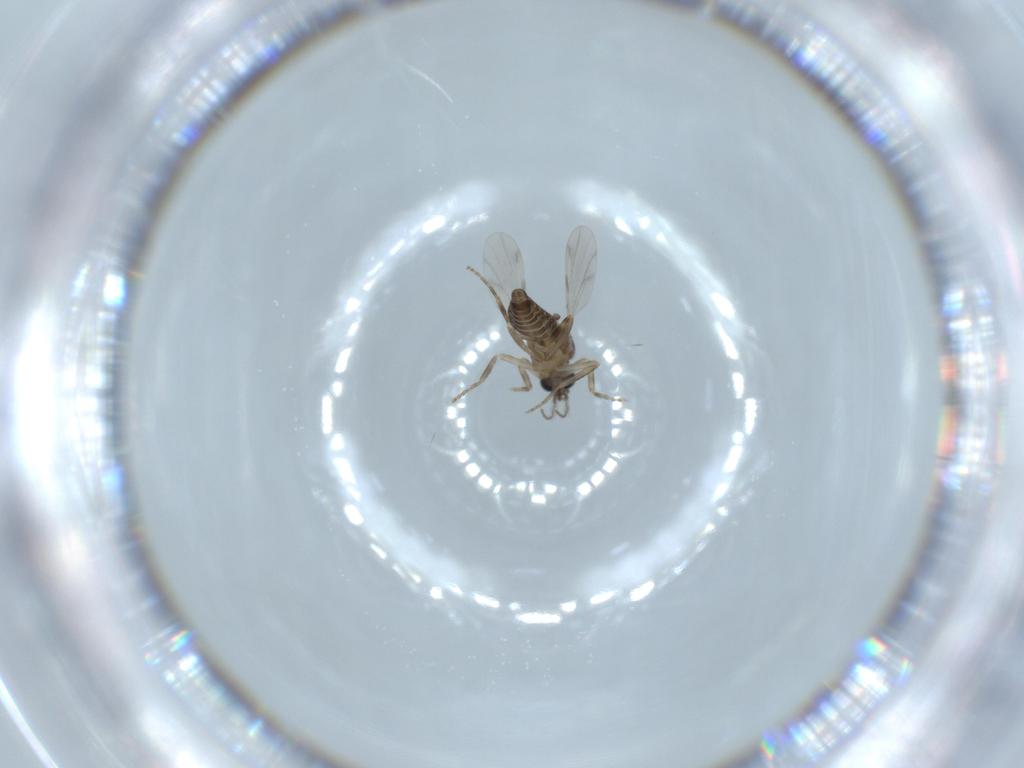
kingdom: Animalia
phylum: Arthropoda
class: Insecta
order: Diptera
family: Ceratopogonidae
